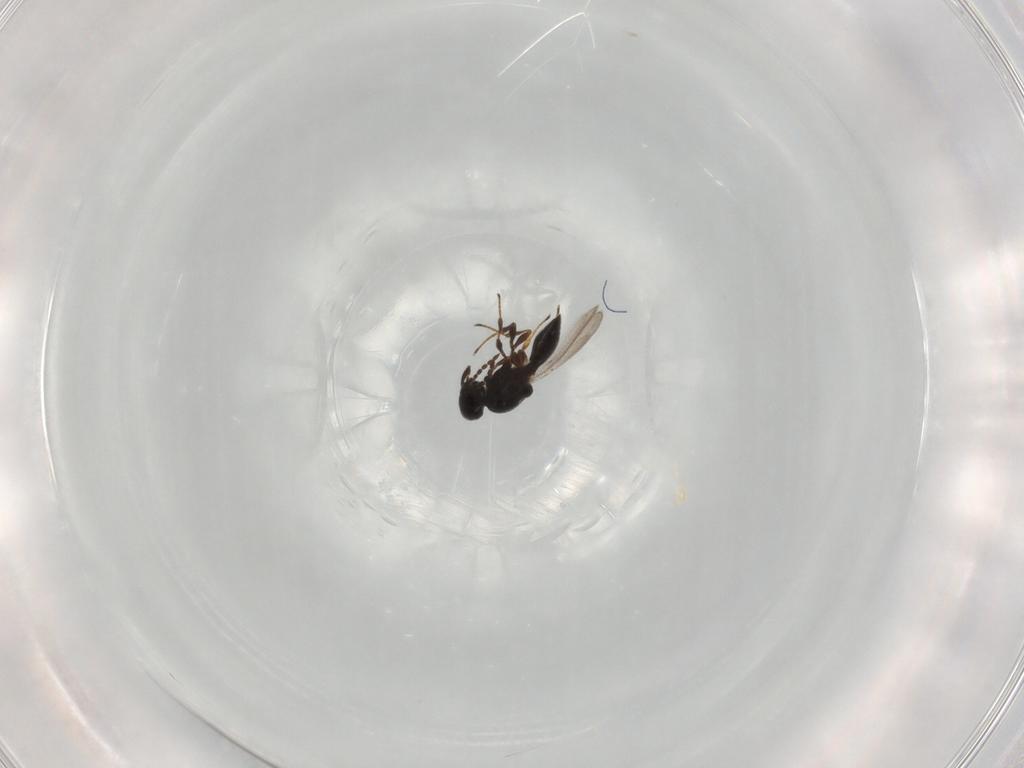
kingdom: Animalia
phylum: Arthropoda
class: Insecta
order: Hymenoptera
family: Platygastridae
